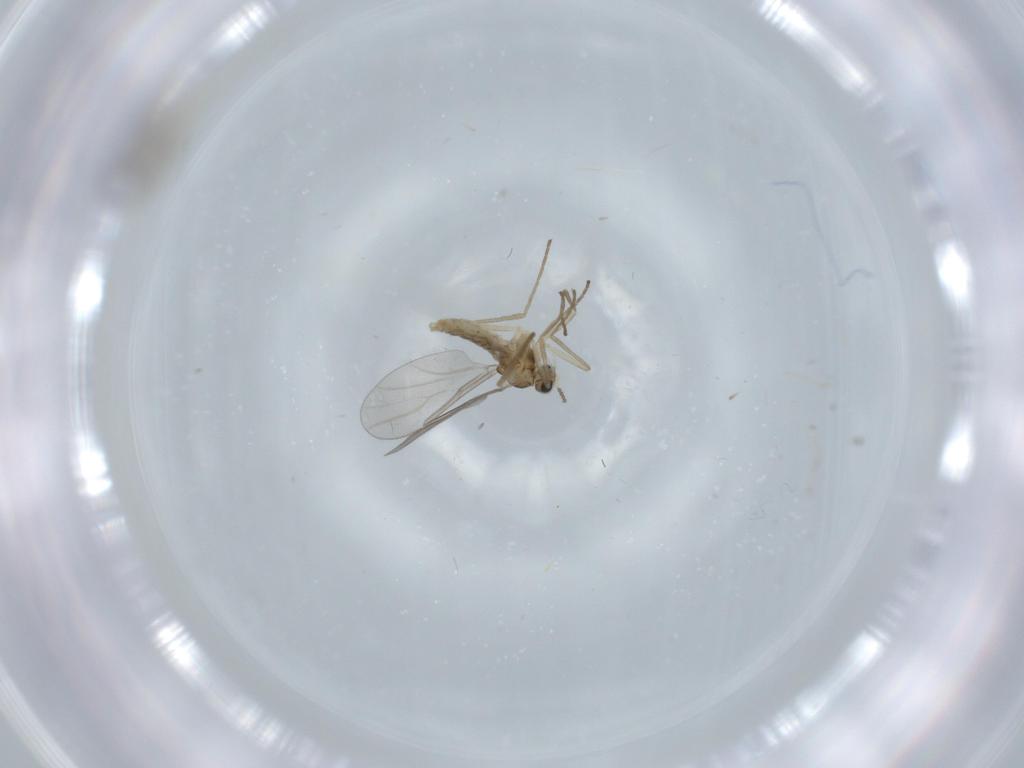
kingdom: Animalia
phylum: Arthropoda
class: Insecta
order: Diptera
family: Cecidomyiidae
